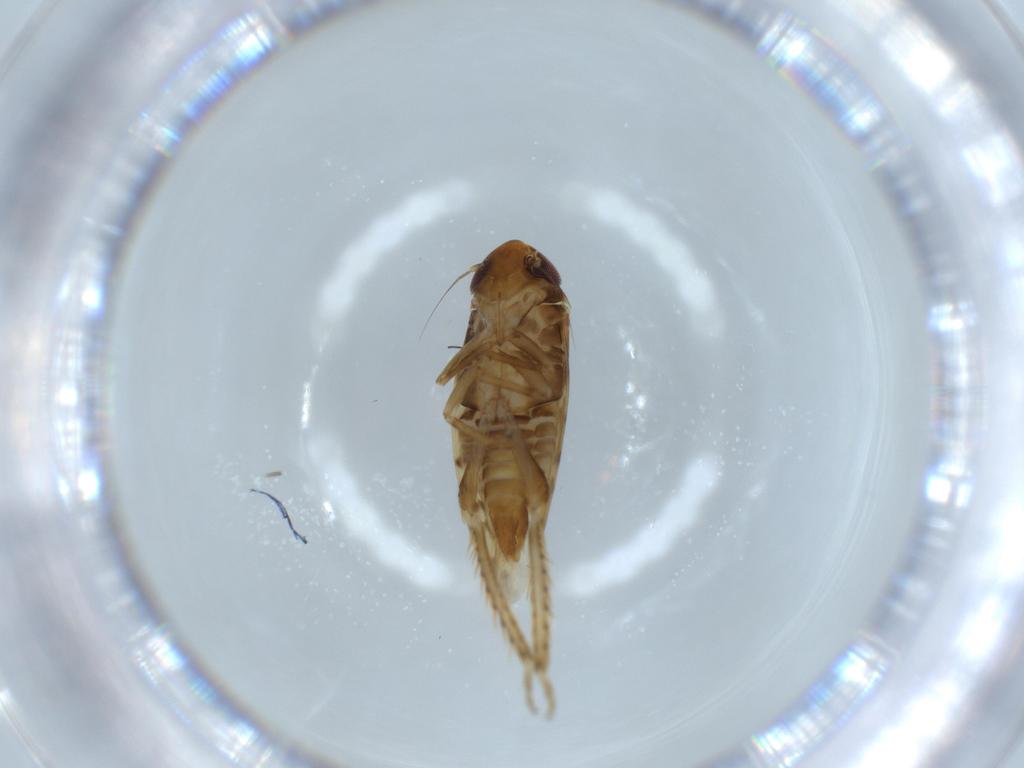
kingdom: Animalia
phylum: Arthropoda
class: Insecta
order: Hemiptera
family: Cicadellidae
